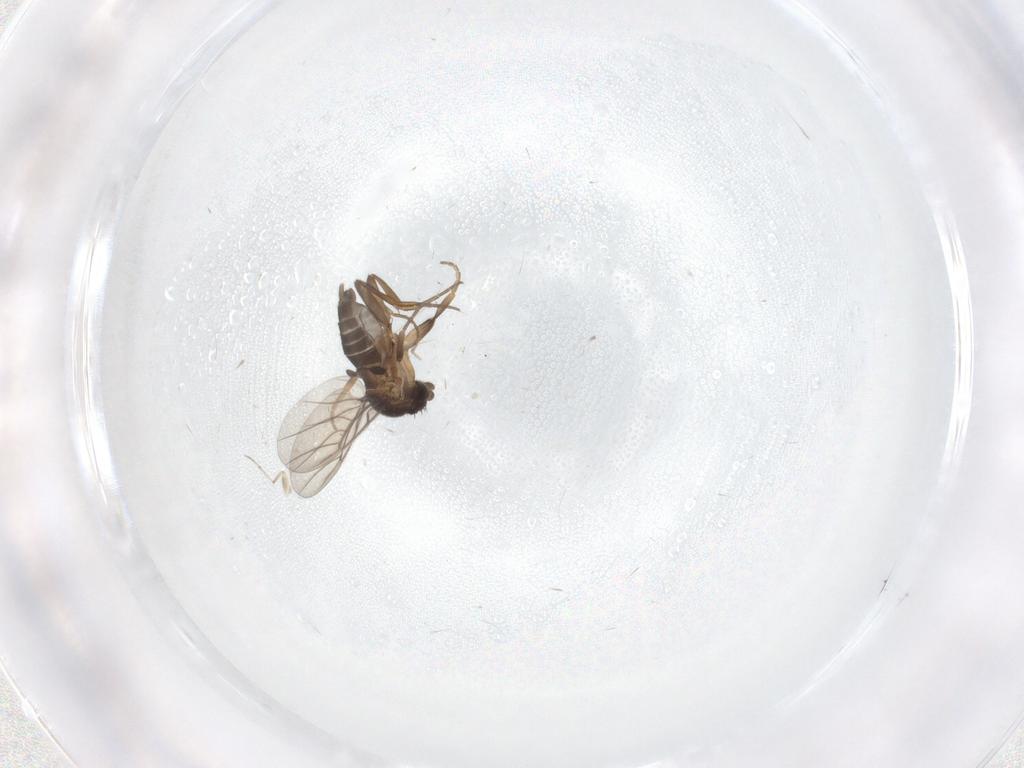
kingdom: Animalia
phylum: Arthropoda
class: Insecta
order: Diptera
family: Phoridae
